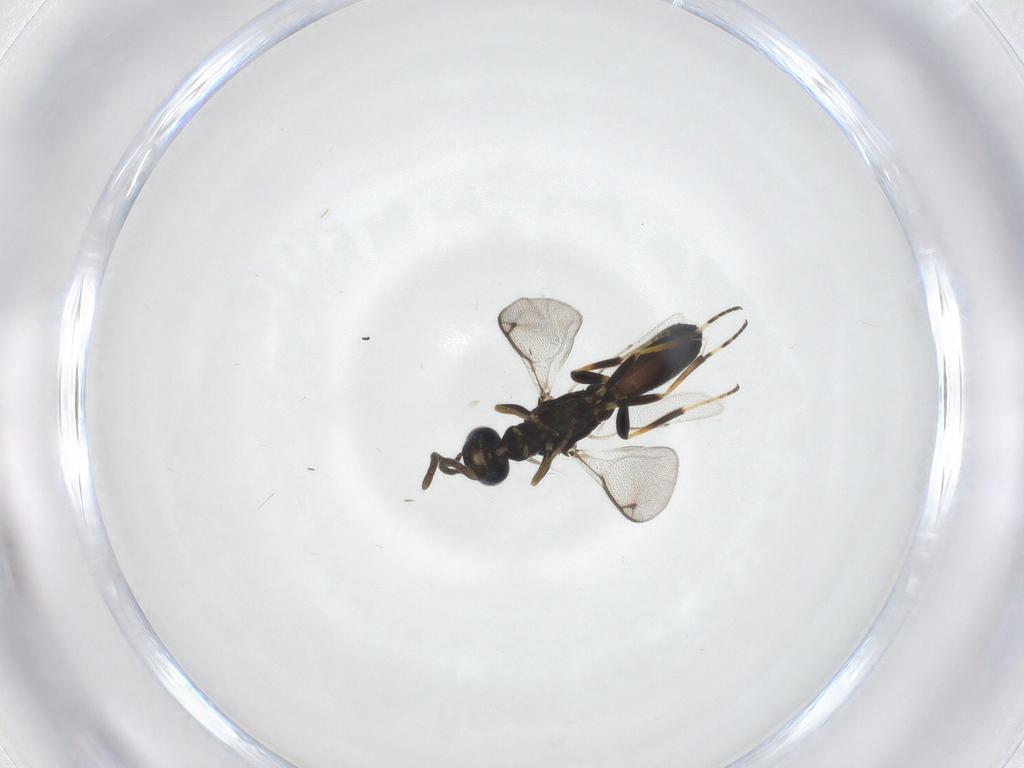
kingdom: Animalia
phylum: Arthropoda
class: Insecta
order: Hymenoptera
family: Eupelmidae
